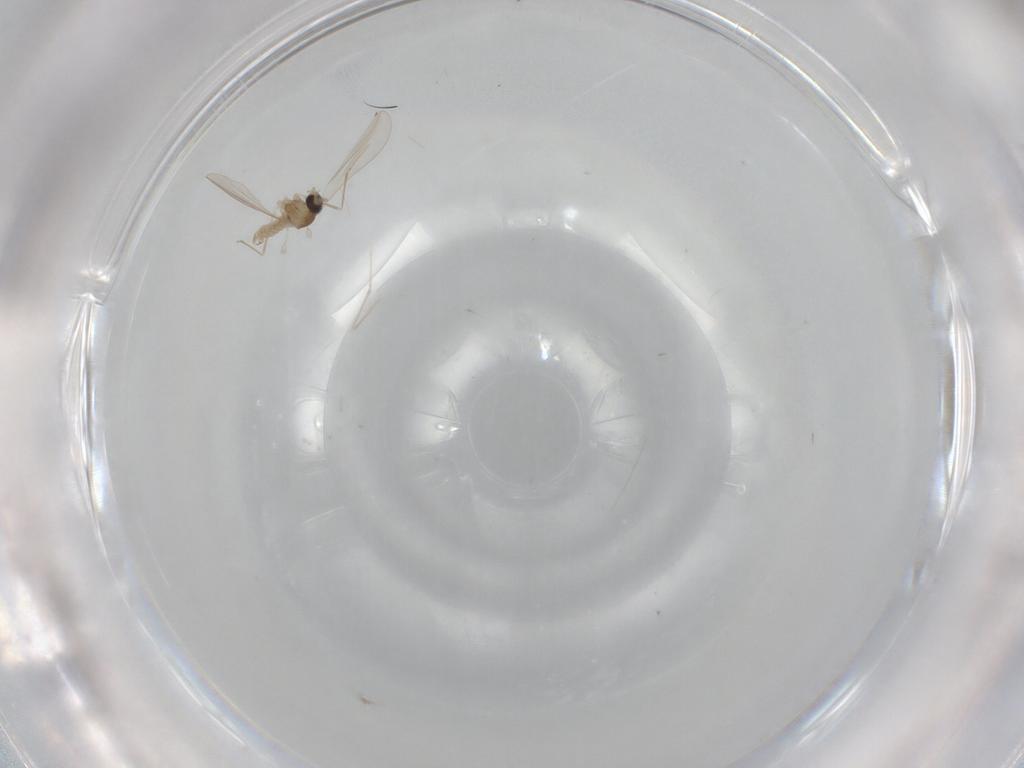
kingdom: Animalia
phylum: Arthropoda
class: Insecta
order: Diptera
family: Cecidomyiidae
